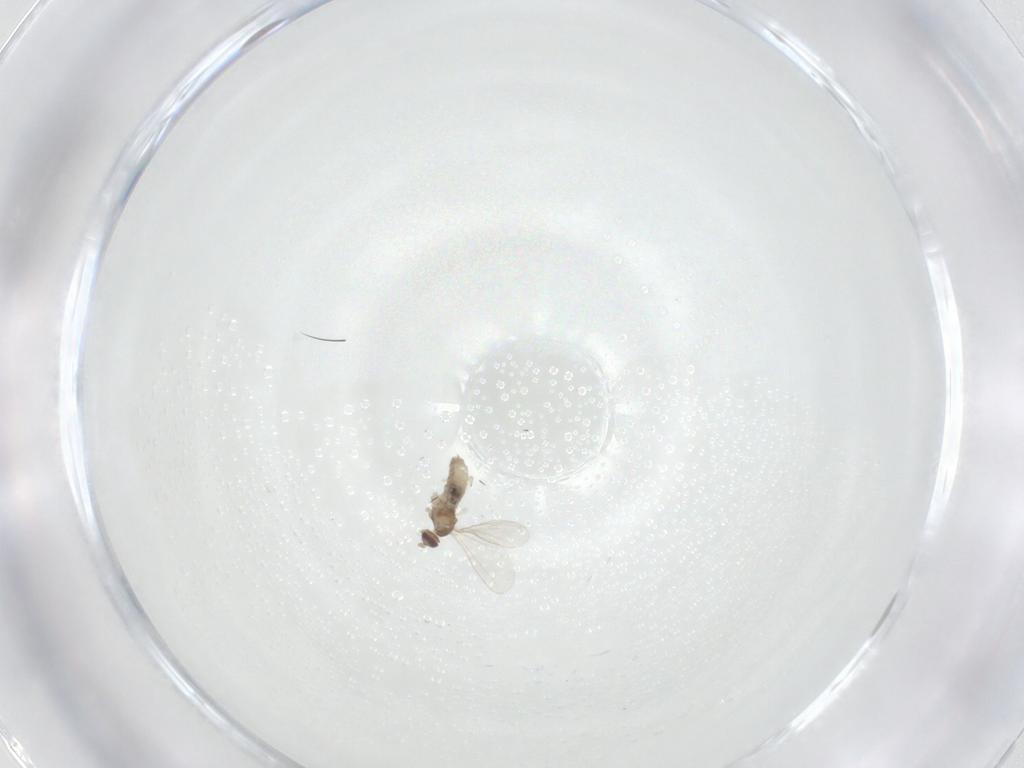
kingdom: Animalia
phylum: Arthropoda
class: Insecta
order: Diptera
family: Cecidomyiidae
